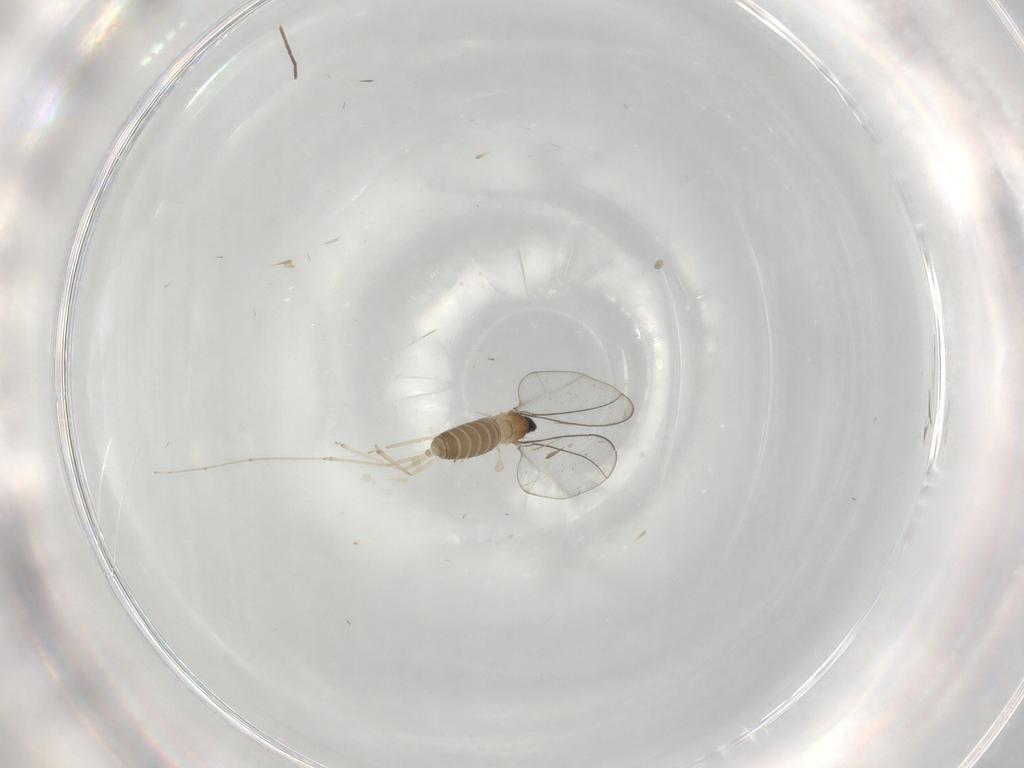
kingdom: Animalia
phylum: Arthropoda
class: Insecta
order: Diptera
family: Cecidomyiidae
